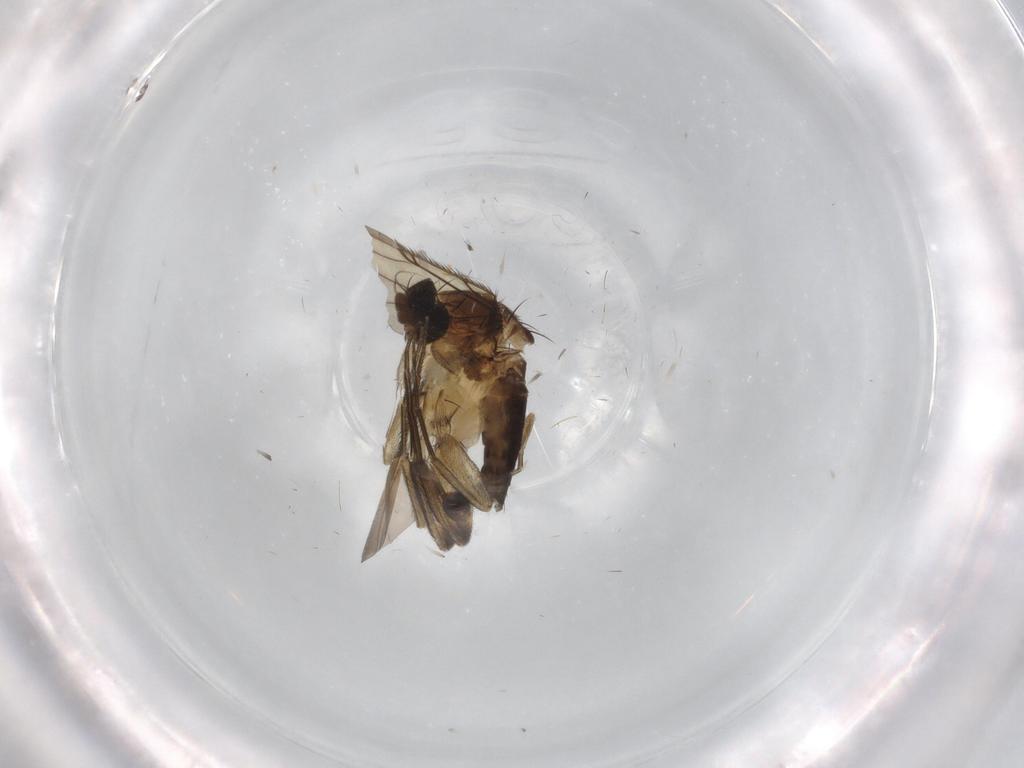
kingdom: Animalia
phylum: Arthropoda
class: Insecta
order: Diptera
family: Phoridae
